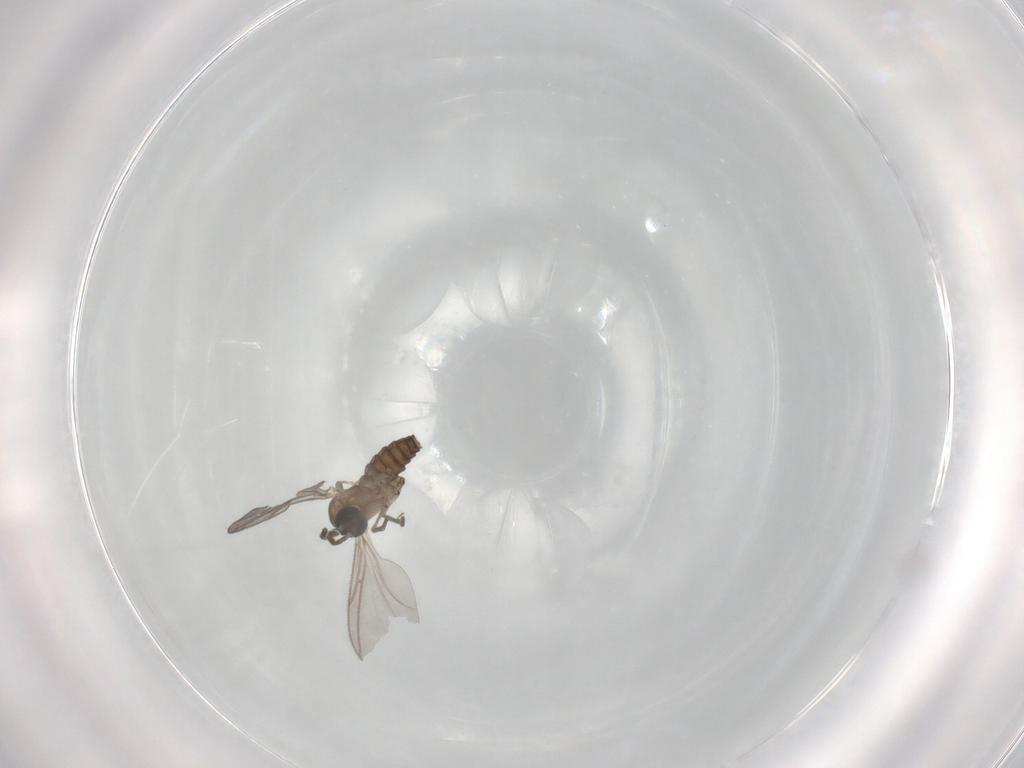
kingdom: Animalia
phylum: Arthropoda
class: Insecta
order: Diptera
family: Sciaridae
